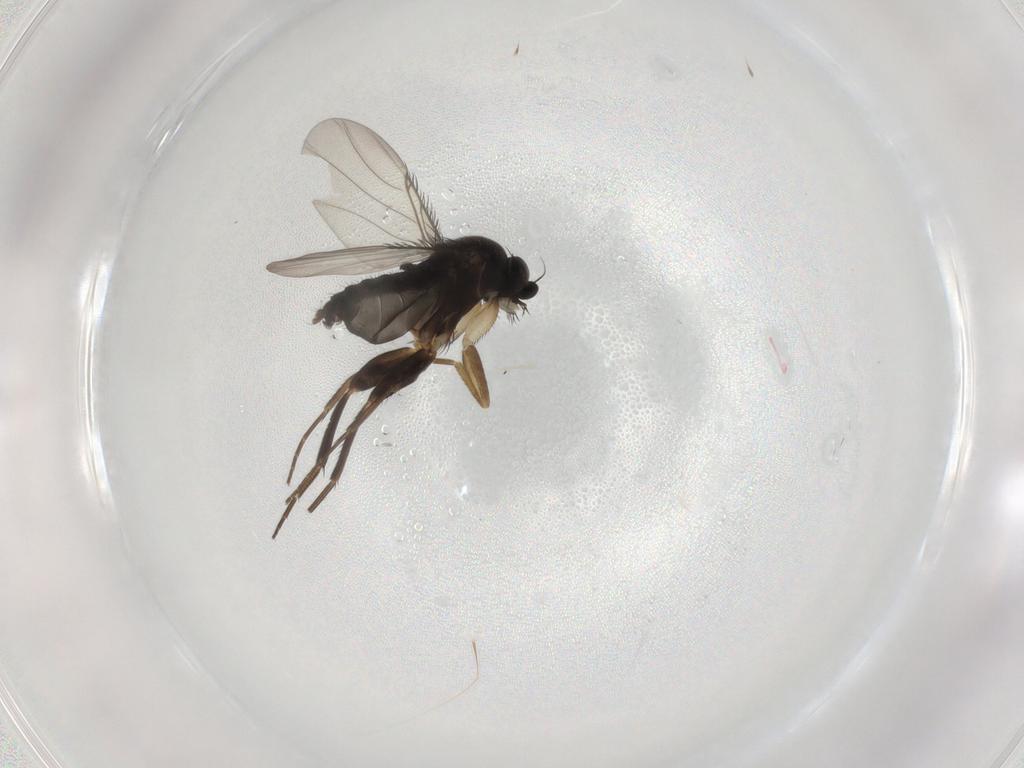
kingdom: Animalia
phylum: Arthropoda
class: Insecta
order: Diptera
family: Phoridae
